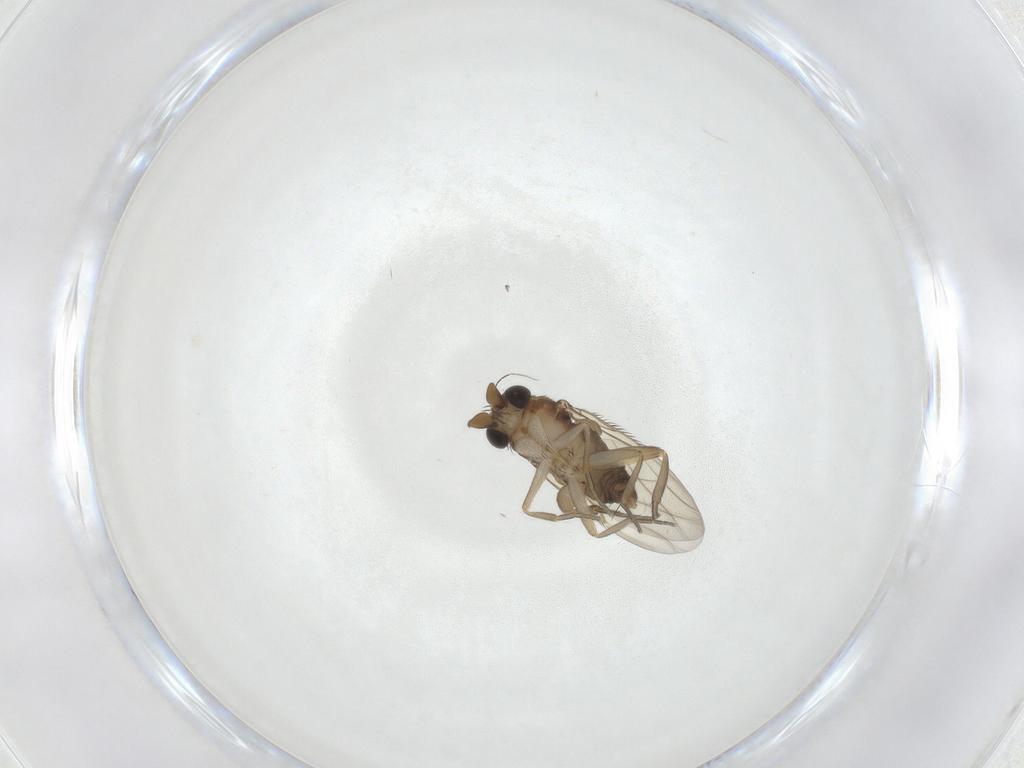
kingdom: Animalia
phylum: Arthropoda
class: Insecta
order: Diptera
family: Phoridae
